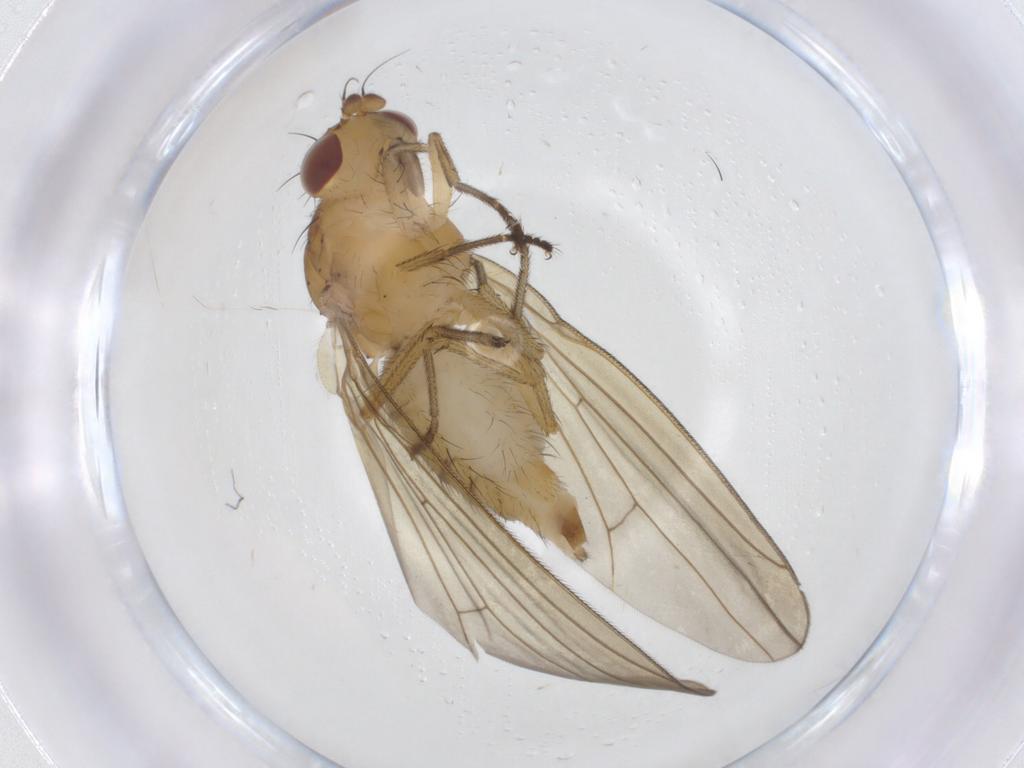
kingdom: Animalia
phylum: Arthropoda
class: Insecta
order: Diptera
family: Lauxaniidae
